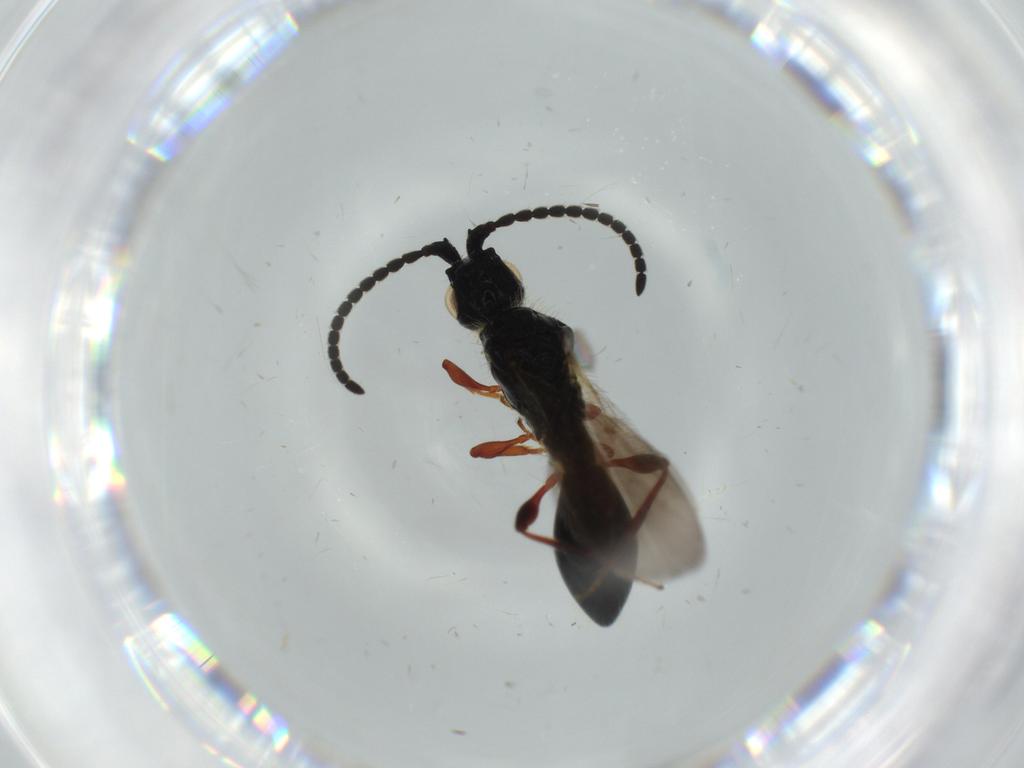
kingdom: Animalia
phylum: Arthropoda
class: Insecta
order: Hymenoptera
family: Diapriidae
